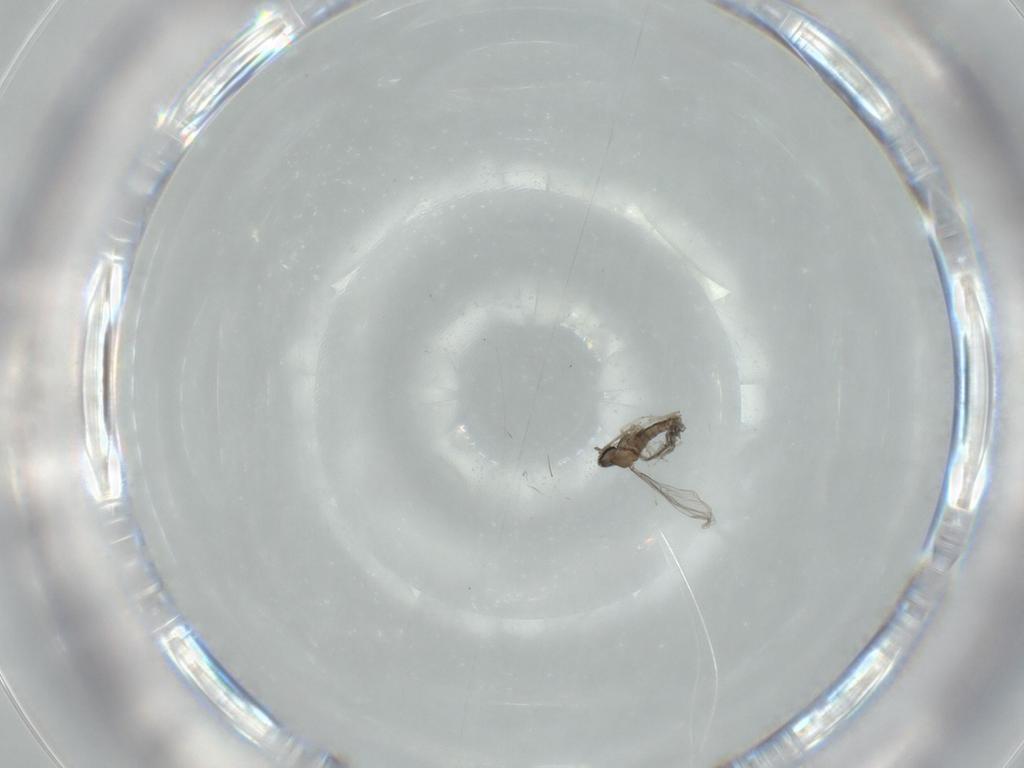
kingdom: Animalia
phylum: Arthropoda
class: Insecta
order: Diptera
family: Cecidomyiidae
